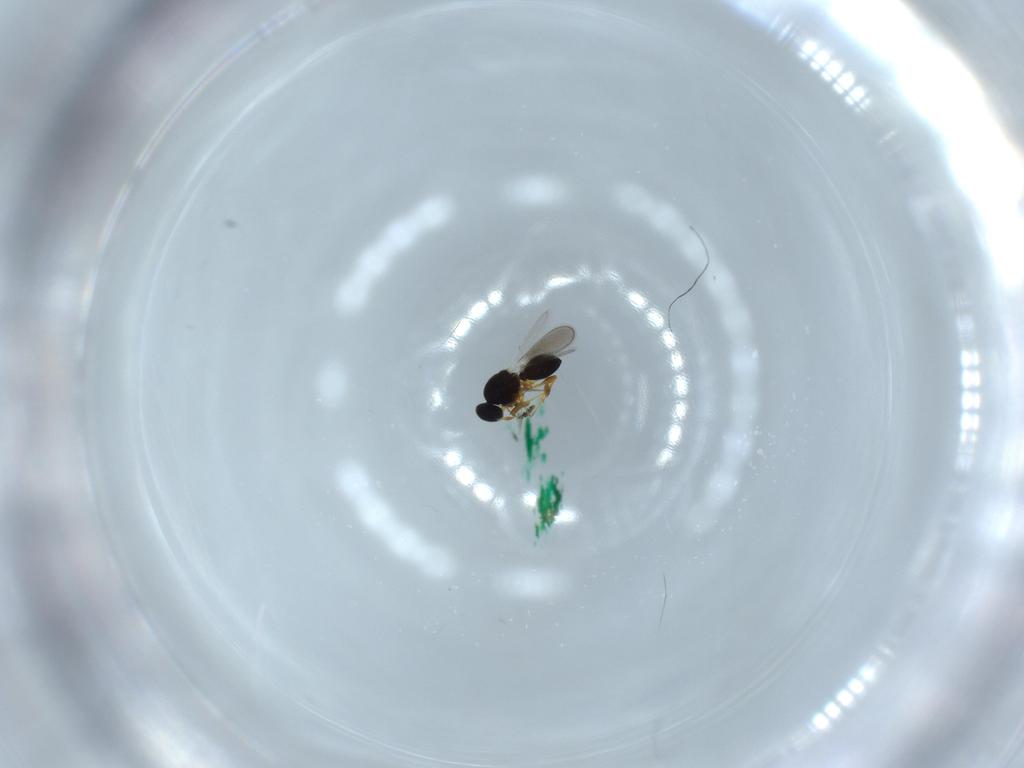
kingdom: Animalia
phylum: Arthropoda
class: Insecta
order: Hymenoptera
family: Platygastridae
